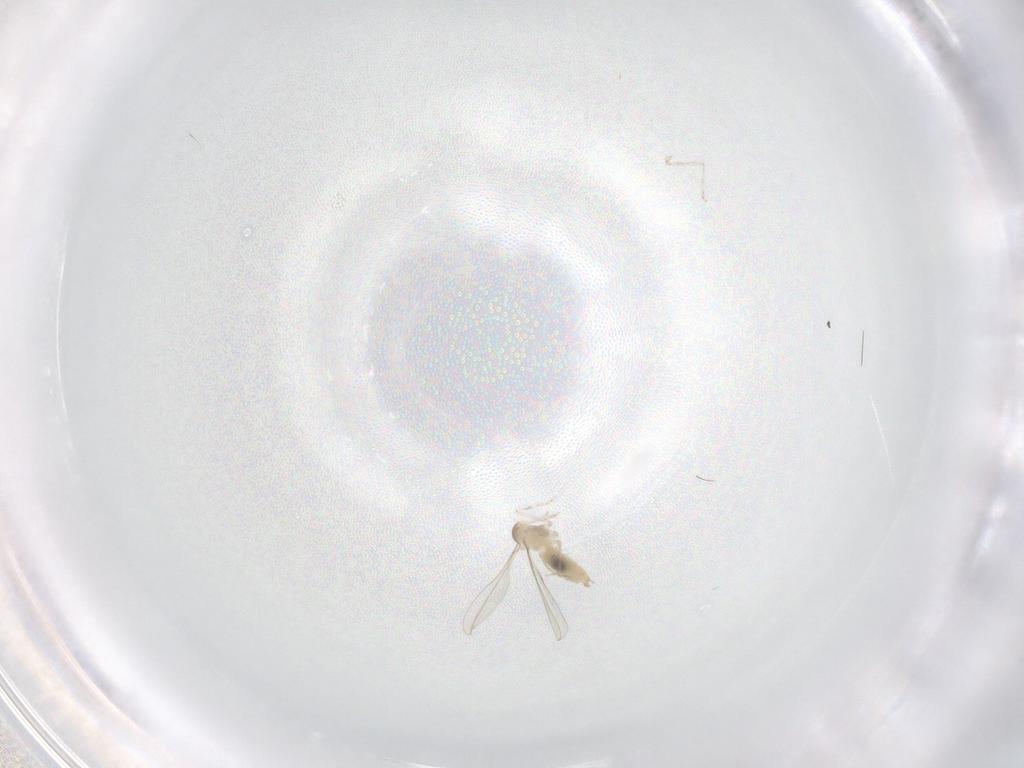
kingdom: Animalia
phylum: Arthropoda
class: Insecta
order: Diptera
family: Cecidomyiidae
